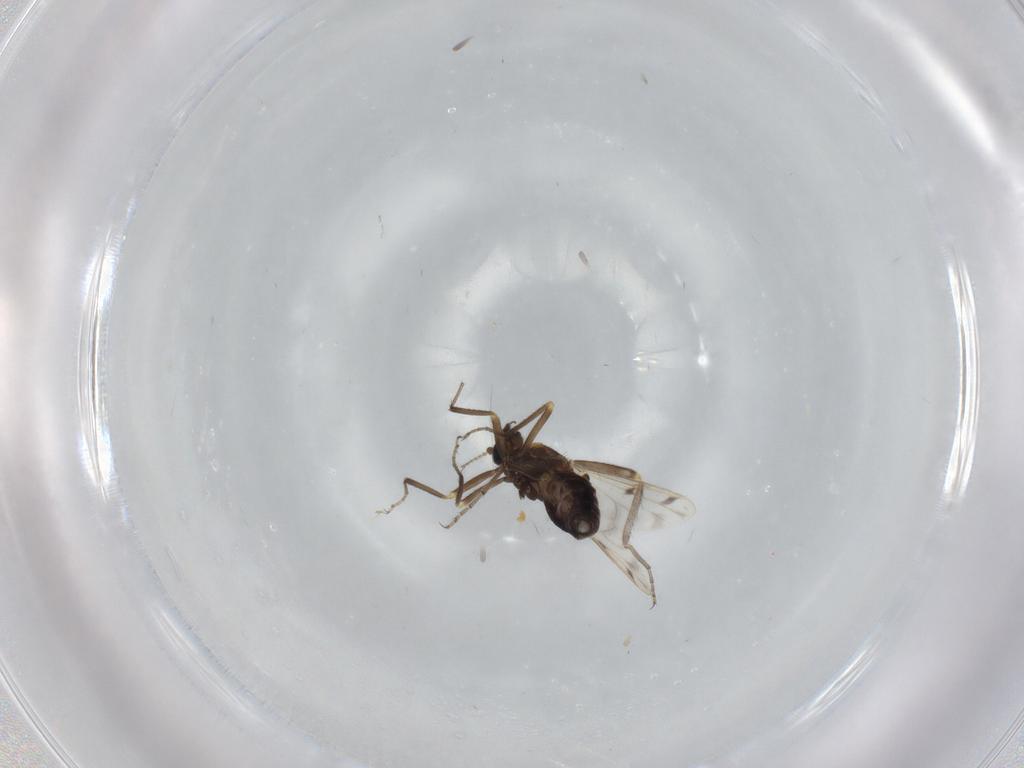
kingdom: Animalia
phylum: Arthropoda
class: Insecta
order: Diptera
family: Ceratopogonidae
